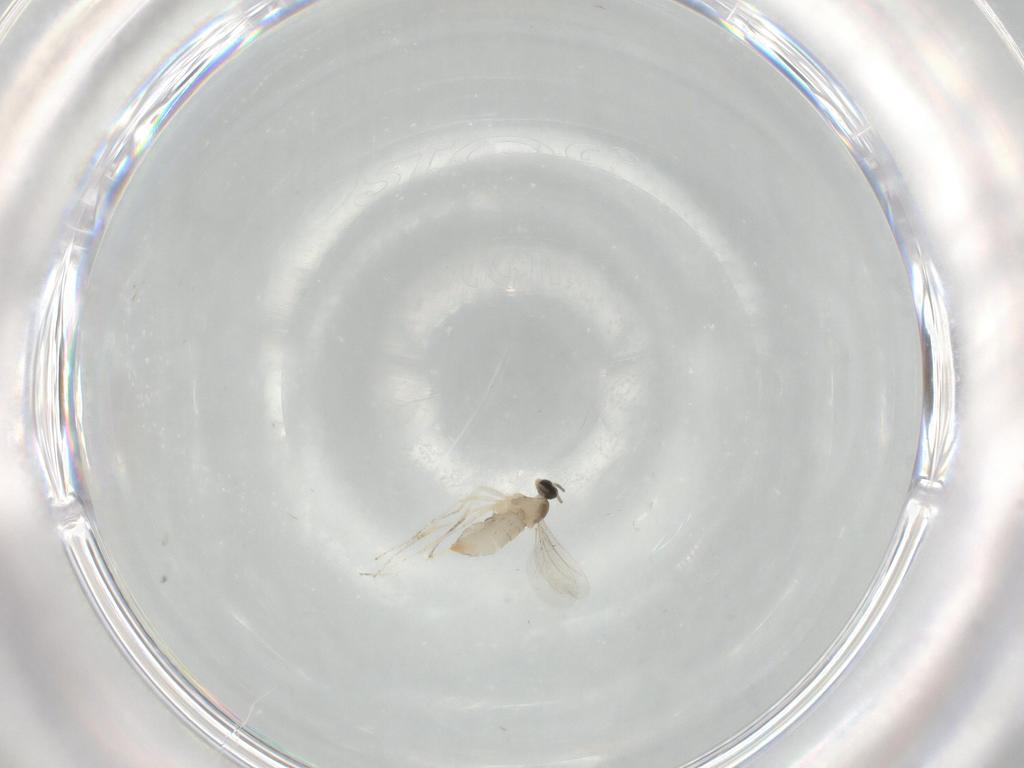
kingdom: Animalia
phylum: Arthropoda
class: Insecta
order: Diptera
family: Cecidomyiidae
